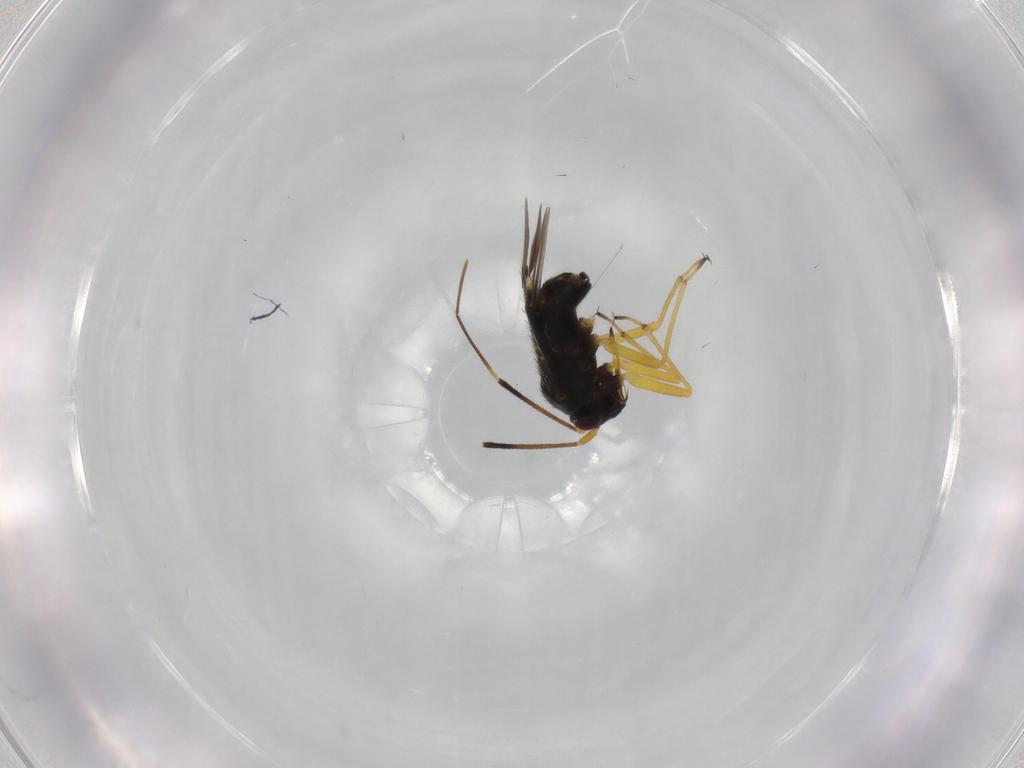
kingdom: Animalia
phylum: Arthropoda
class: Insecta
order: Hemiptera
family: Miridae
